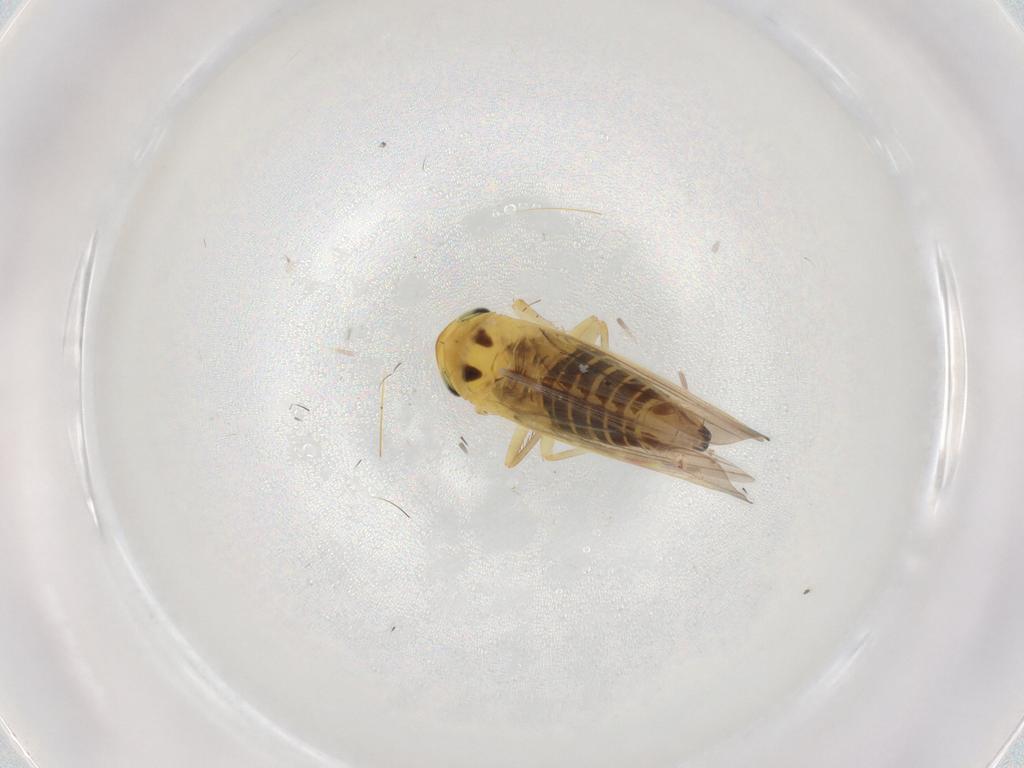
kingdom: Animalia
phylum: Arthropoda
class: Insecta
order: Hemiptera
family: Cicadellidae
